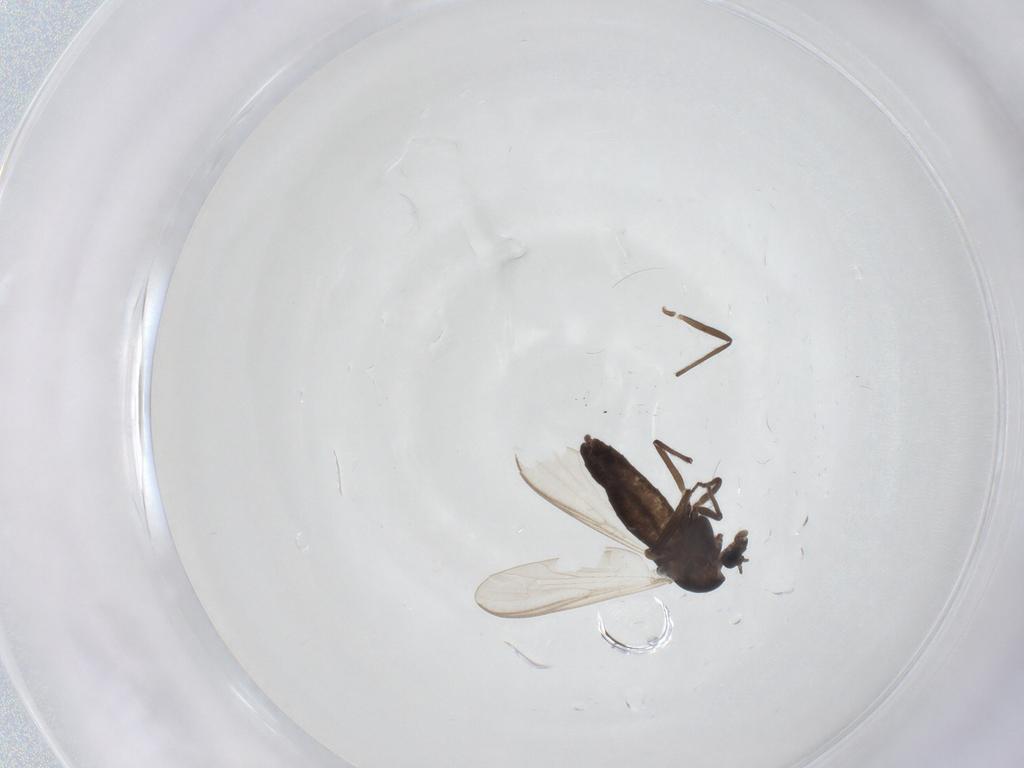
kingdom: Animalia
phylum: Arthropoda
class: Insecta
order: Diptera
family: Chironomidae
